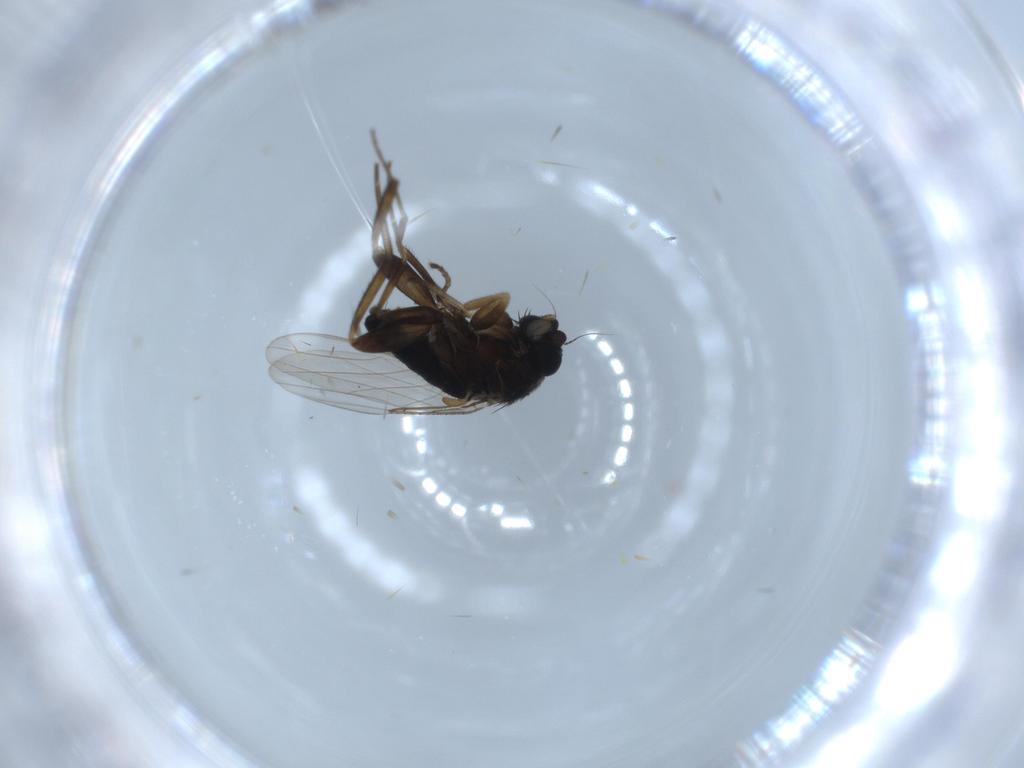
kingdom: Animalia
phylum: Arthropoda
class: Insecta
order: Diptera
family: Phoridae
